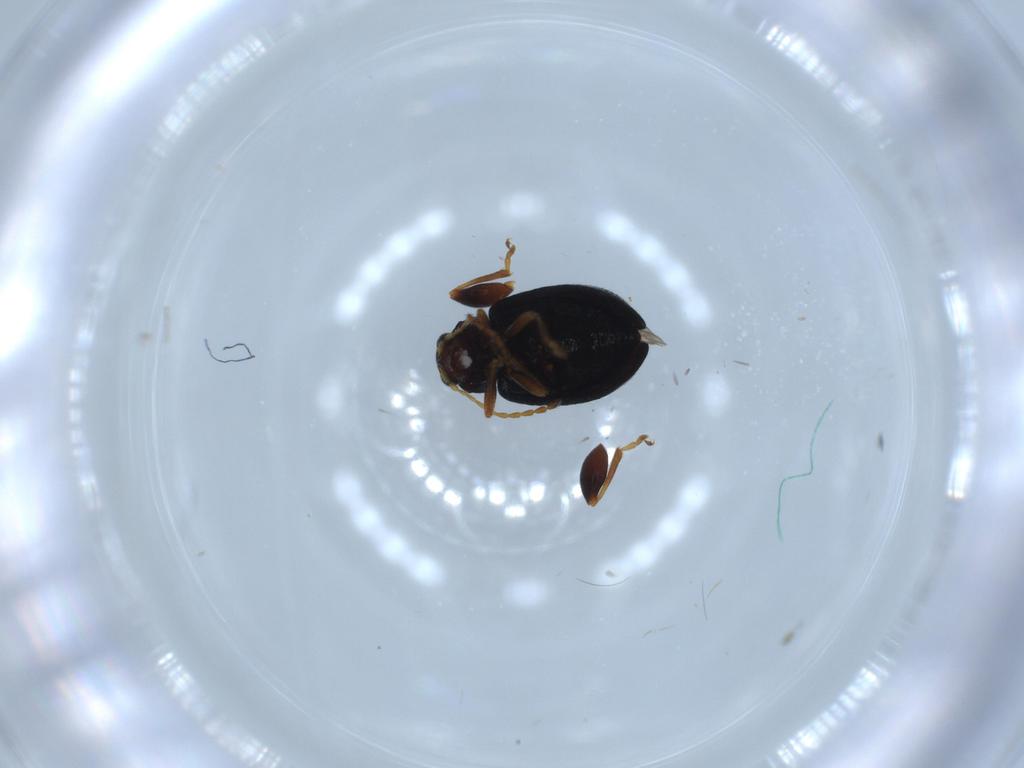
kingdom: Animalia
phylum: Arthropoda
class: Insecta
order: Coleoptera
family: Chrysomelidae
